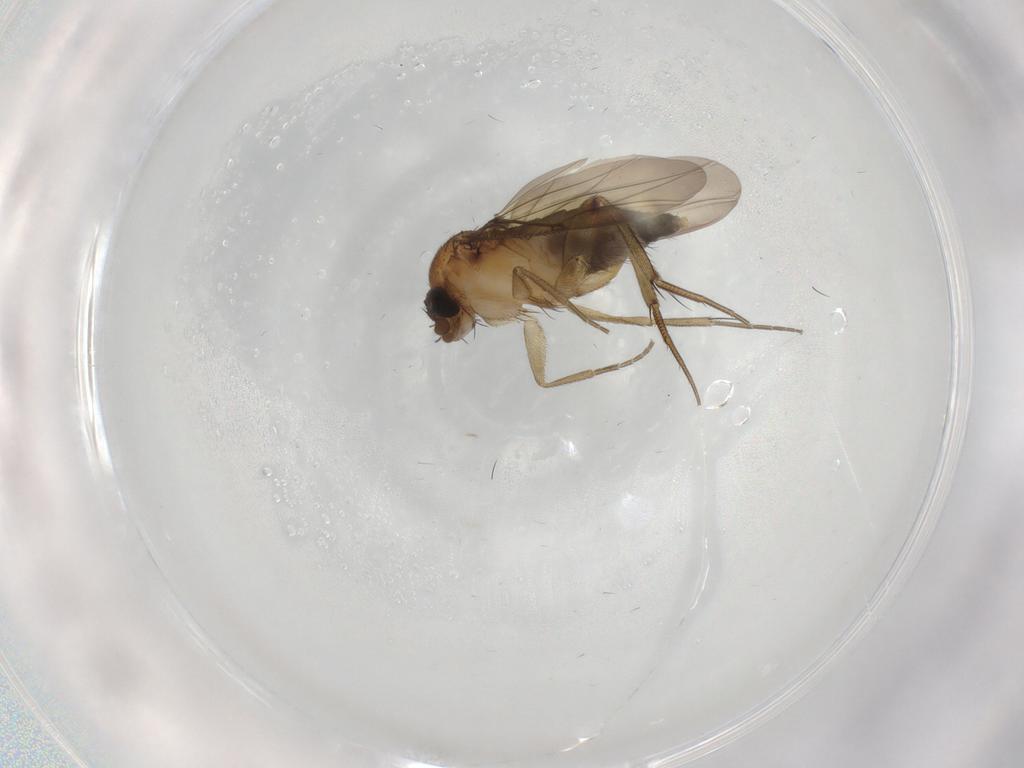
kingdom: Animalia
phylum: Arthropoda
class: Insecta
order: Diptera
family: Phoridae
